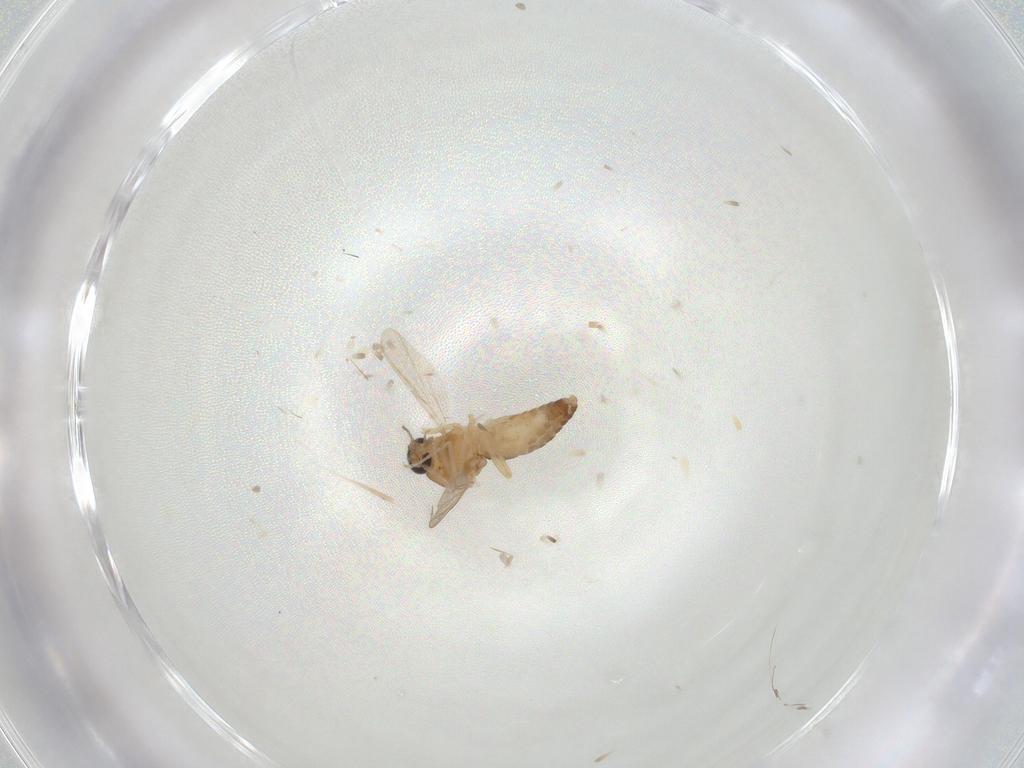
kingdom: Animalia
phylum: Arthropoda
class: Insecta
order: Diptera
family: Ceratopogonidae
